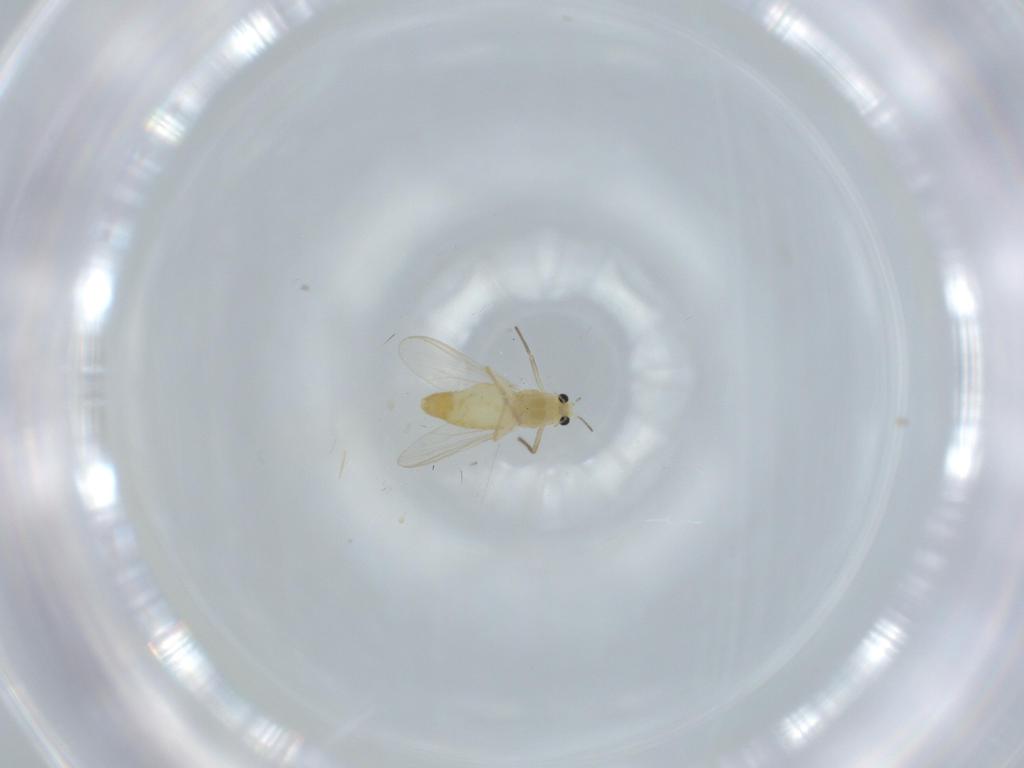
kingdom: Animalia
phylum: Arthropoda
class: Insecta
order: Diptera
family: Chironomidae
